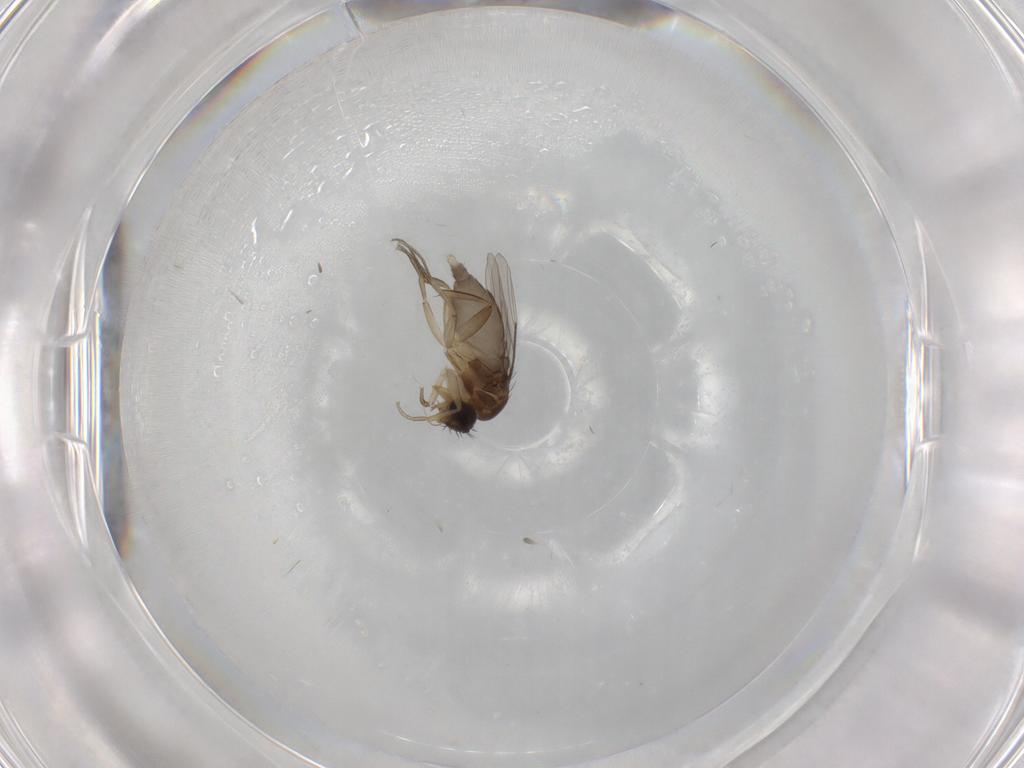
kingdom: Animalia
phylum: Arthropoda
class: Insecta
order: Diptera
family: Phoridae
